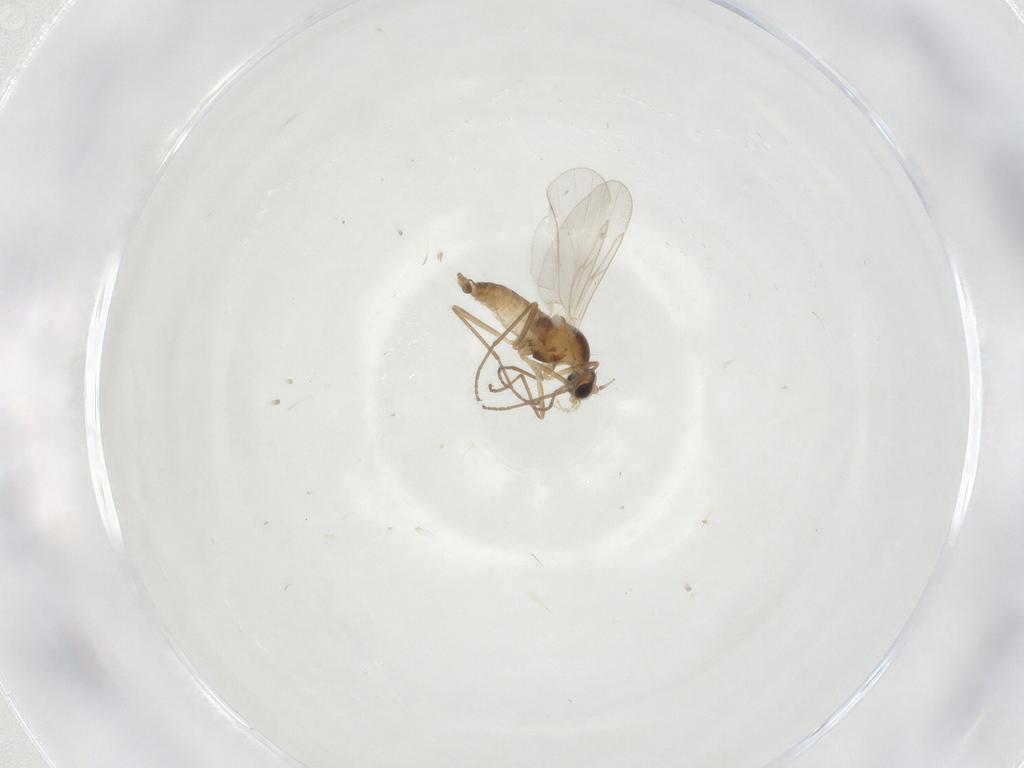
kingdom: Animalia
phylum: Arthropoda
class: Insecta
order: Diptera
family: Cecidomyiidae
